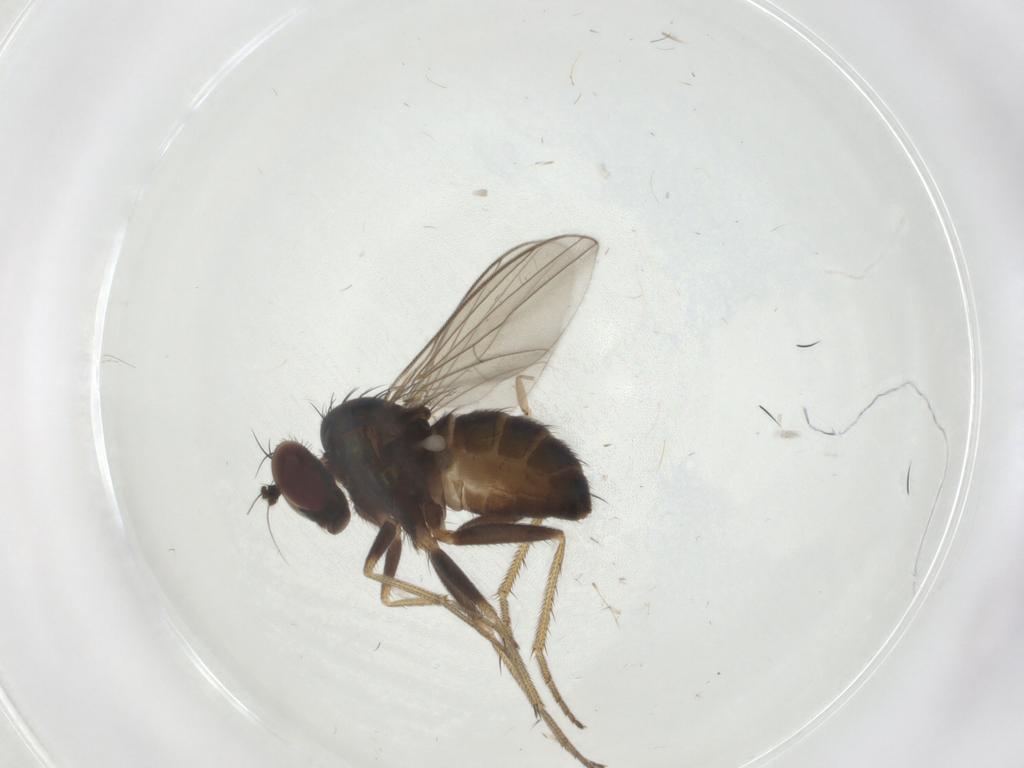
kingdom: Animalia
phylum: Arthropoda
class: Insecta
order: Diptera
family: Dolichopodidae
